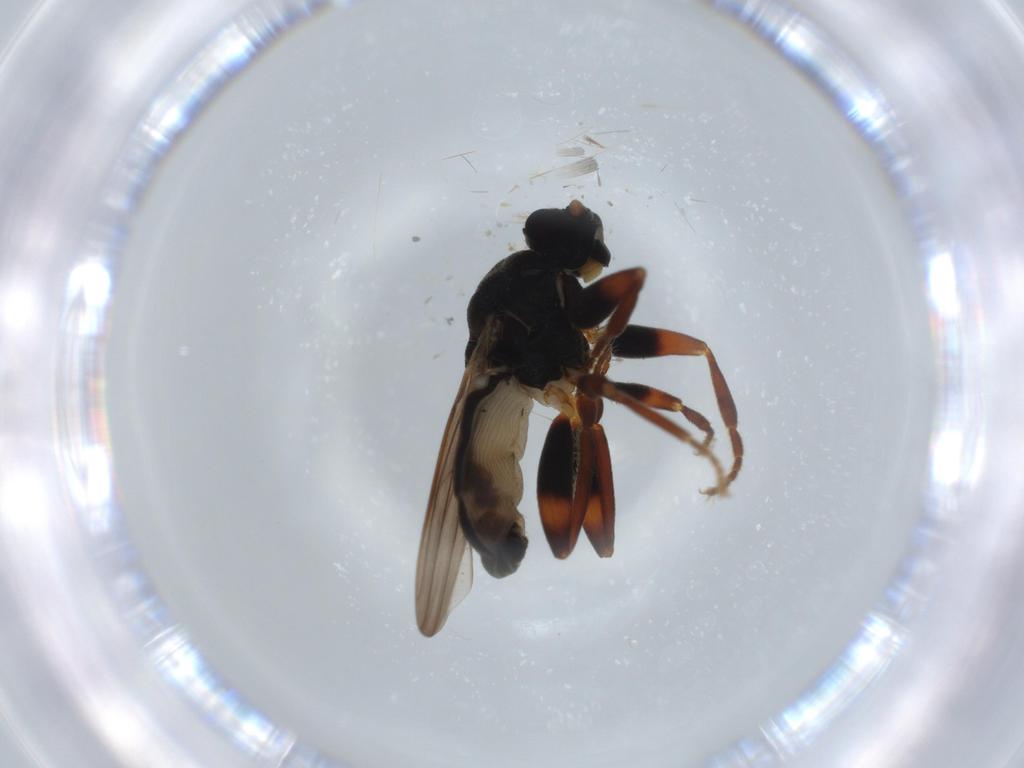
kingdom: Animalia
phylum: Arthropoda
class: Insecta
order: Diptera
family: Sphaeroceridae
